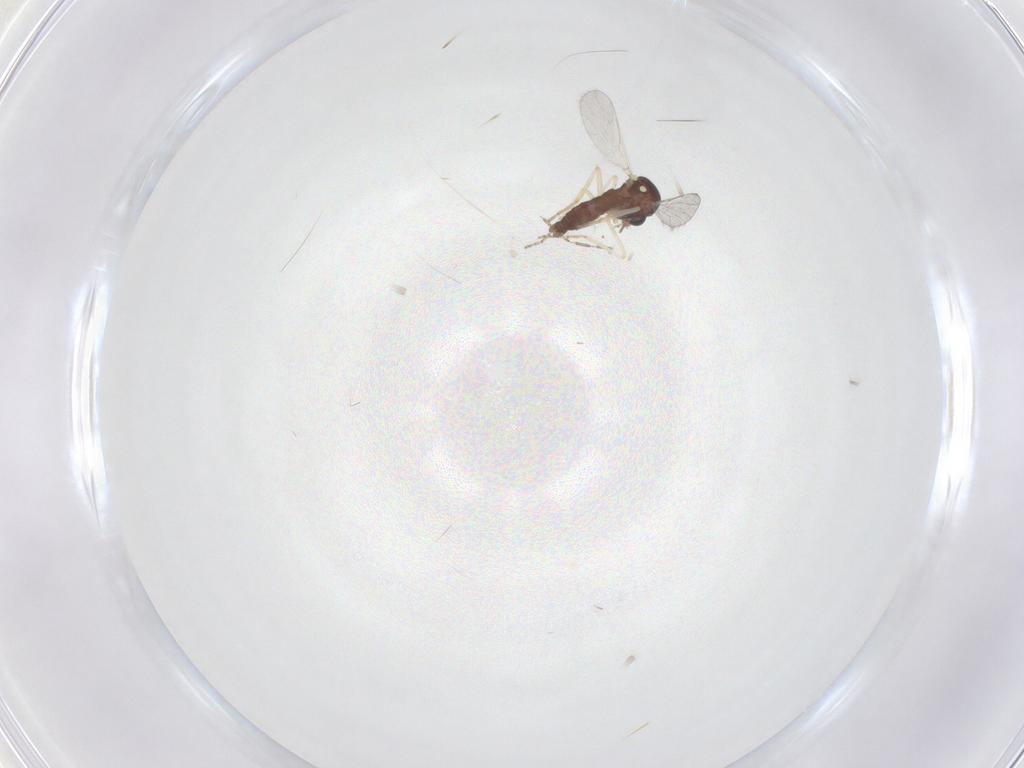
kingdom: Animalia
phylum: Arthropoda
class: Insecta
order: Diptera
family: Ceratopogonidae
